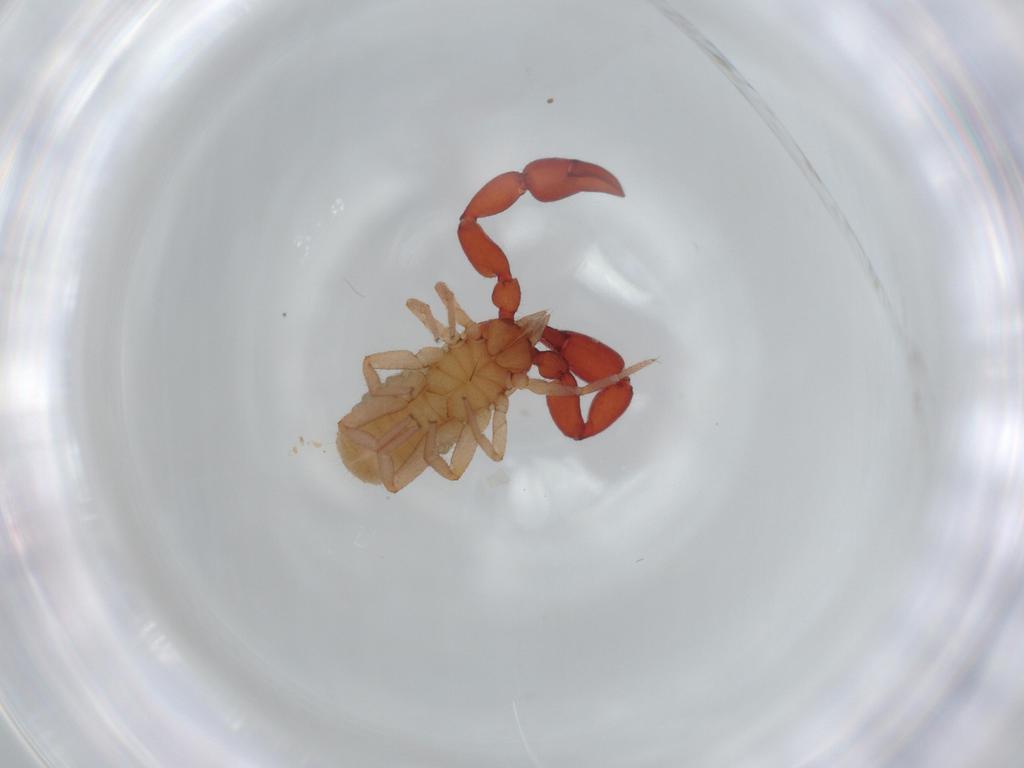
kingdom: Animalia
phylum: Arthropoda
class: Arachnida
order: Pseudoscorpiones
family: Chernetidae
